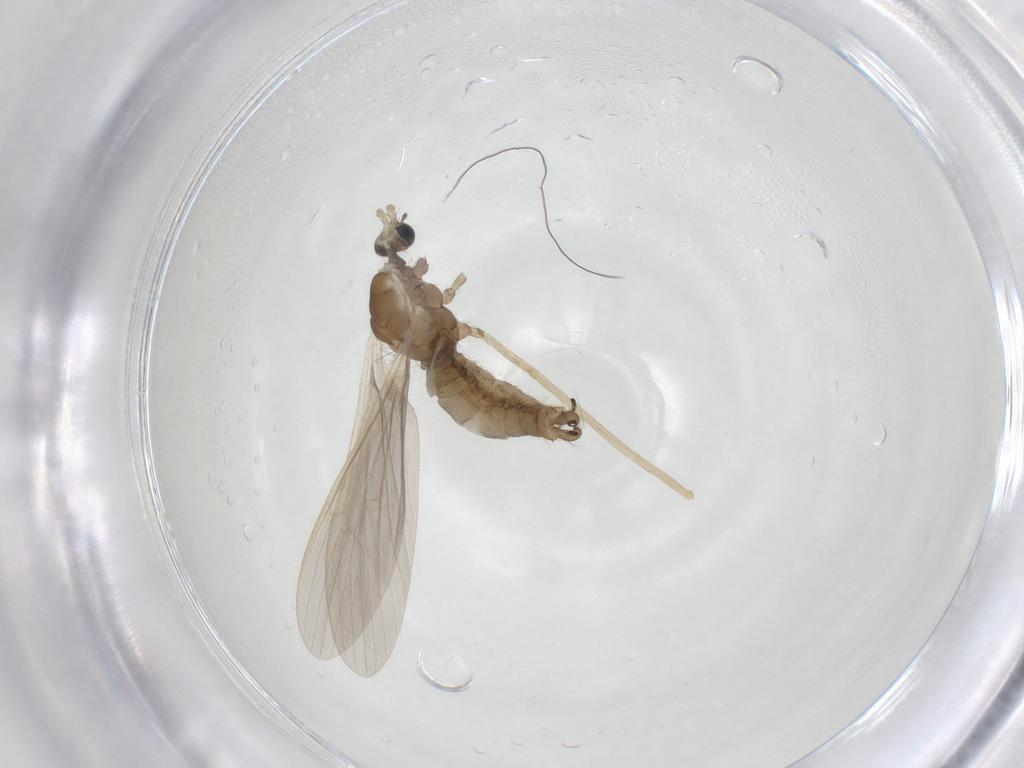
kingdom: Animalia
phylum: Arthropoda
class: Insecta
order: Diptera
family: Limoniidae
